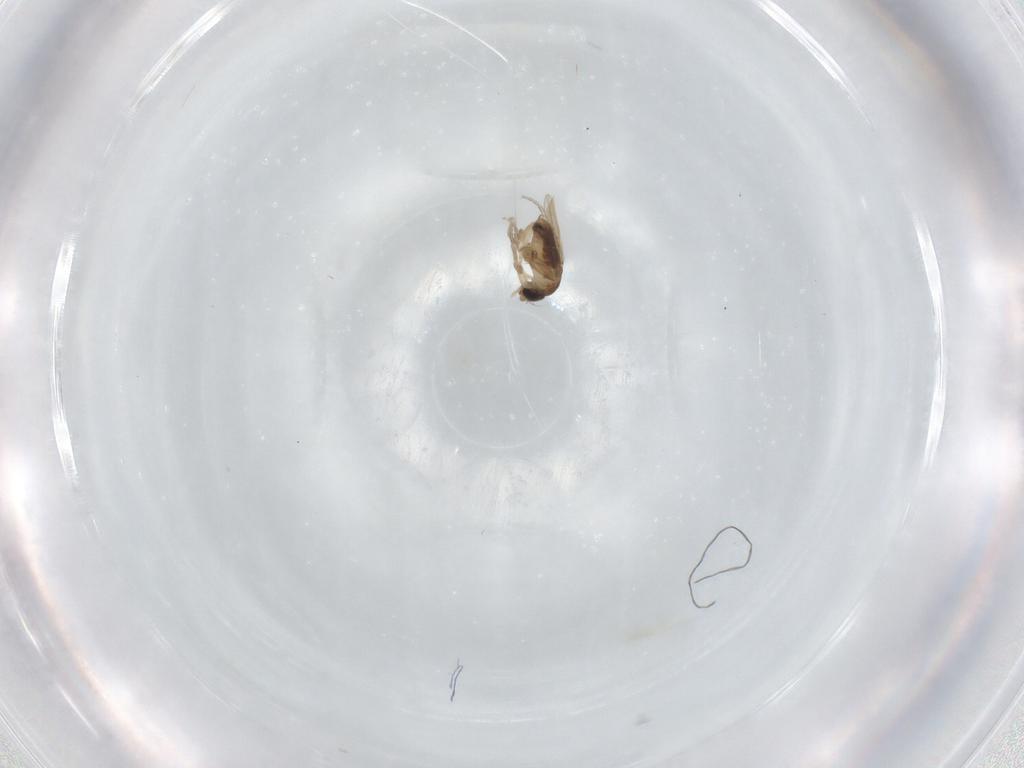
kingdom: Animalia
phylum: Arthropoda
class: Insecta
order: Diptera
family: Phoridae
